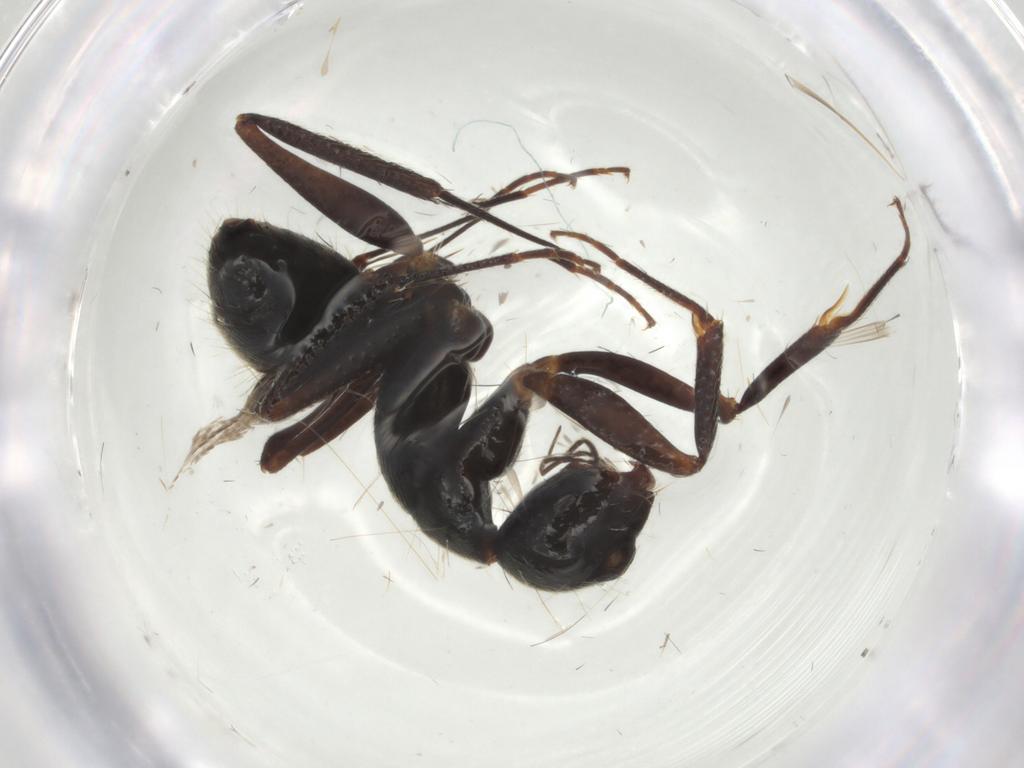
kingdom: Animalia
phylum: Arthropoda
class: Insecta
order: Hymenoptera
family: Formicidae
